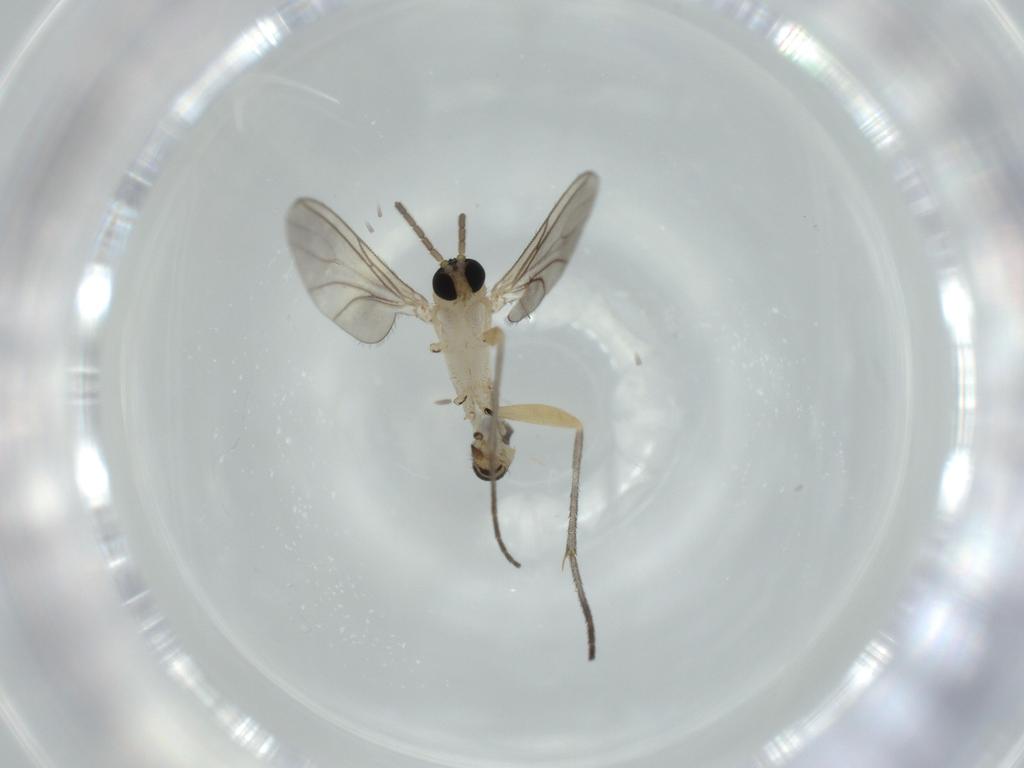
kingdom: Animalia
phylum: Arthropoda
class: Insecta
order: Diptera
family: Sciaridae
